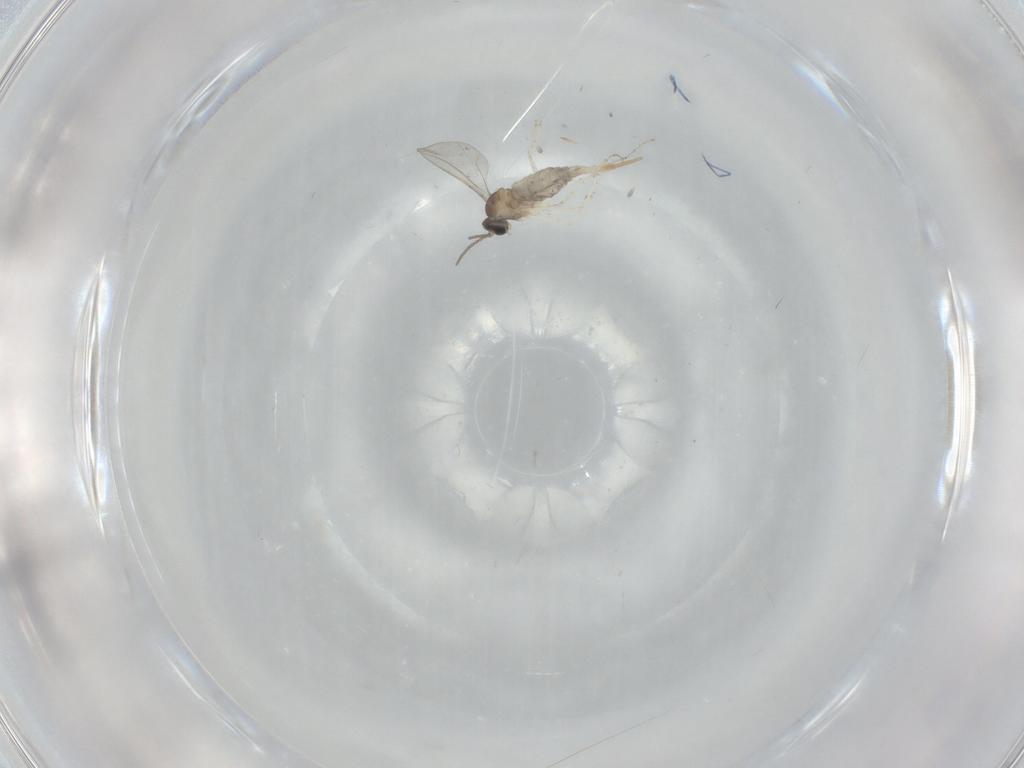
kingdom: Animalia
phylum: Arthropoda
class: Insecta
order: Diptera
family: Cecidomyiidae
